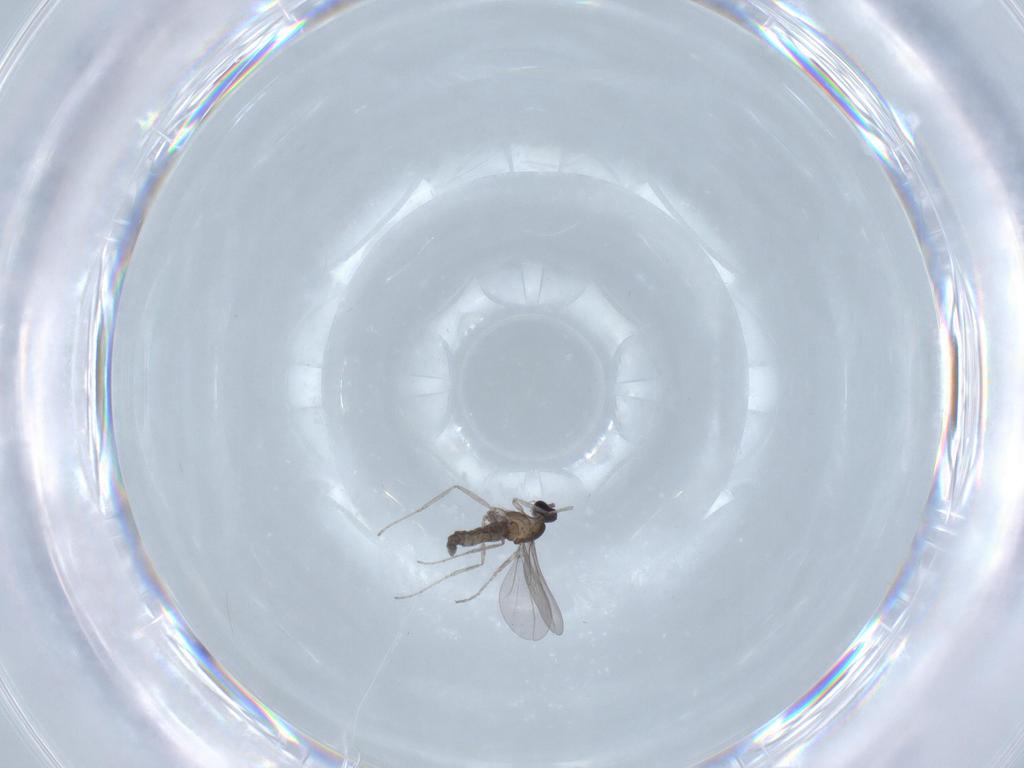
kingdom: Animalia
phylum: Arthropoda
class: Insecta
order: Diptera
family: Cecidomyiidae
